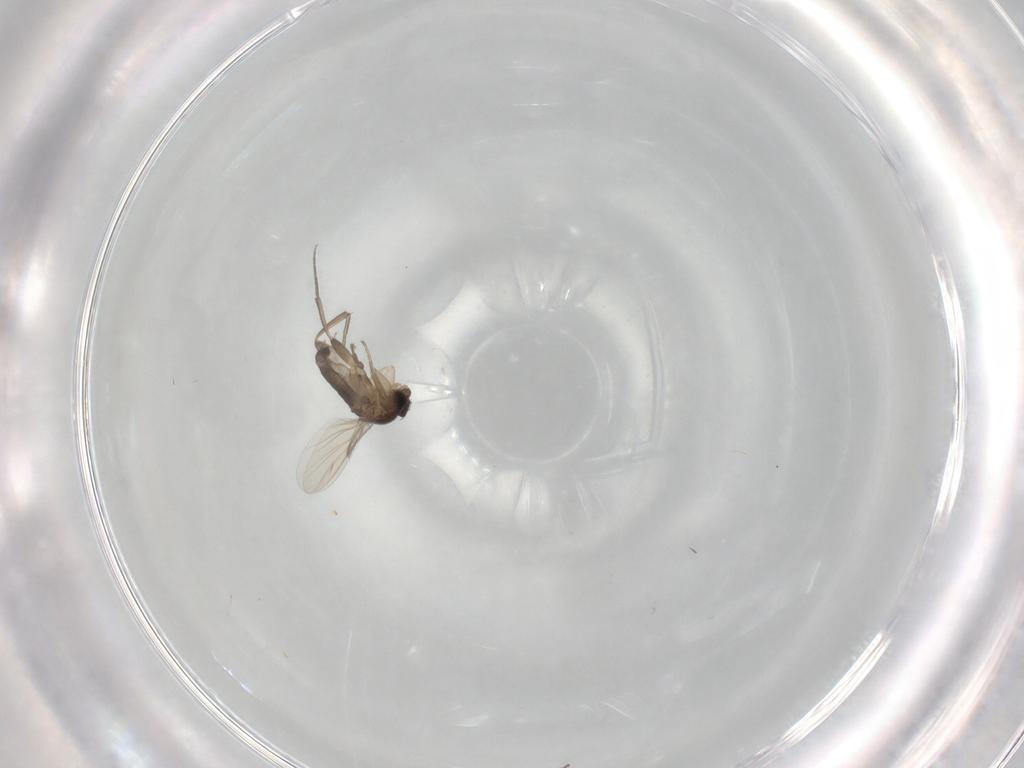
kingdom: Animalia
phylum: Arthropoda
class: Insecta
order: Diptera
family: Phoridae
